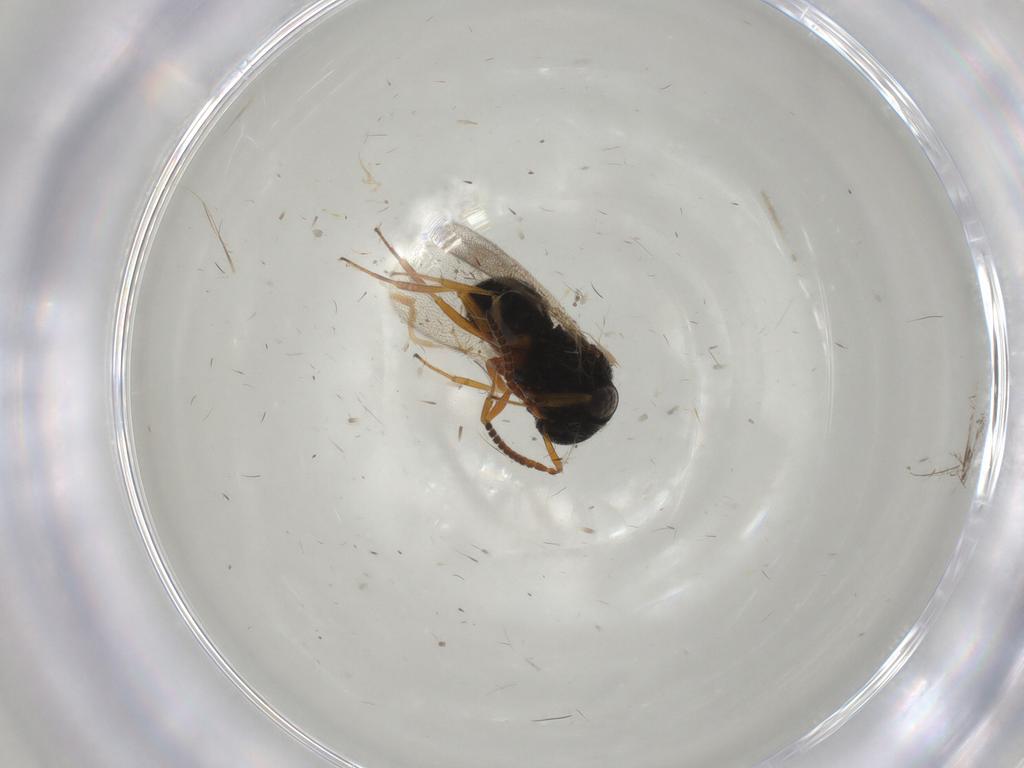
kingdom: Animalia
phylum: Arthropoda
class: Insecta
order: Hymenoptera
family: Scelionidae
